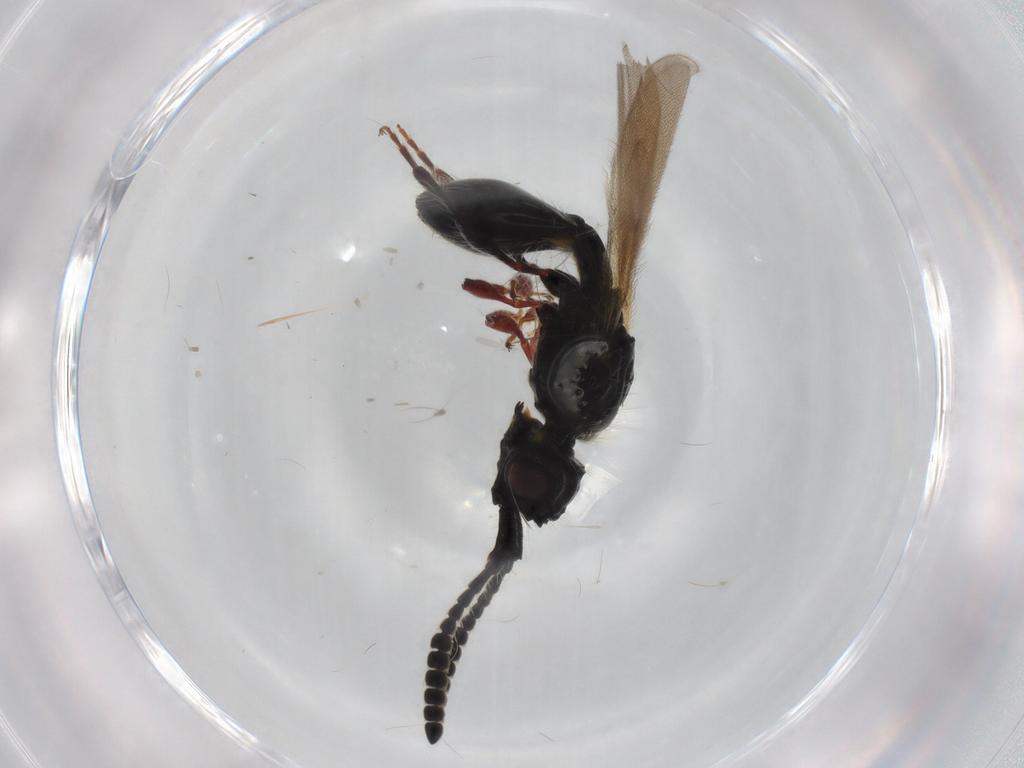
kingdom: Animalia
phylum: Arthropoda
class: Insecta
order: Hymenoptera
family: Diapriidae
